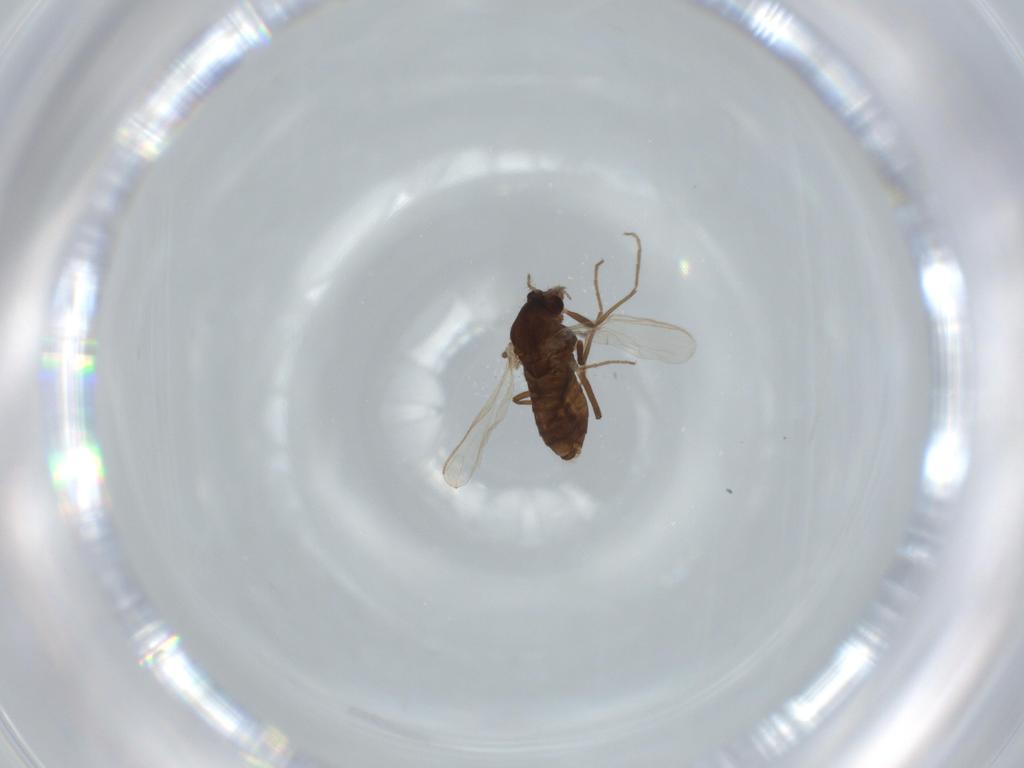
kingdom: Animalia
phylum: Arthropoda
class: Insecta
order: Diptera
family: Chironomidae
